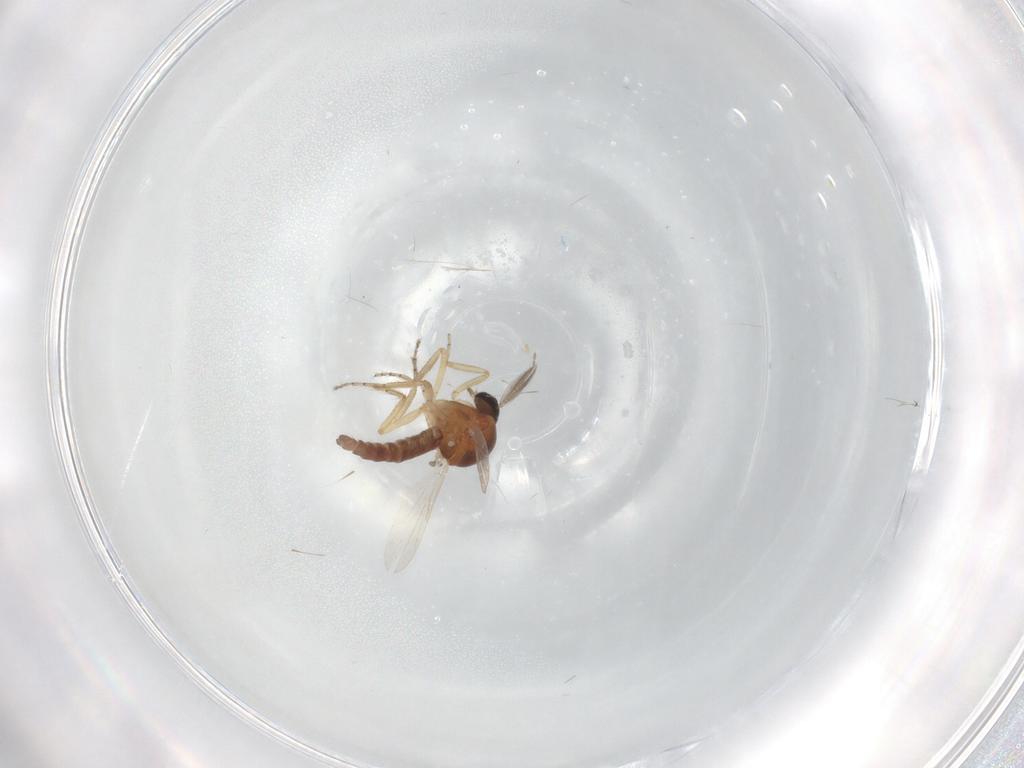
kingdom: Animalia
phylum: Arthropoda
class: Insecta
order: Diptera
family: Ceratopogonidae
